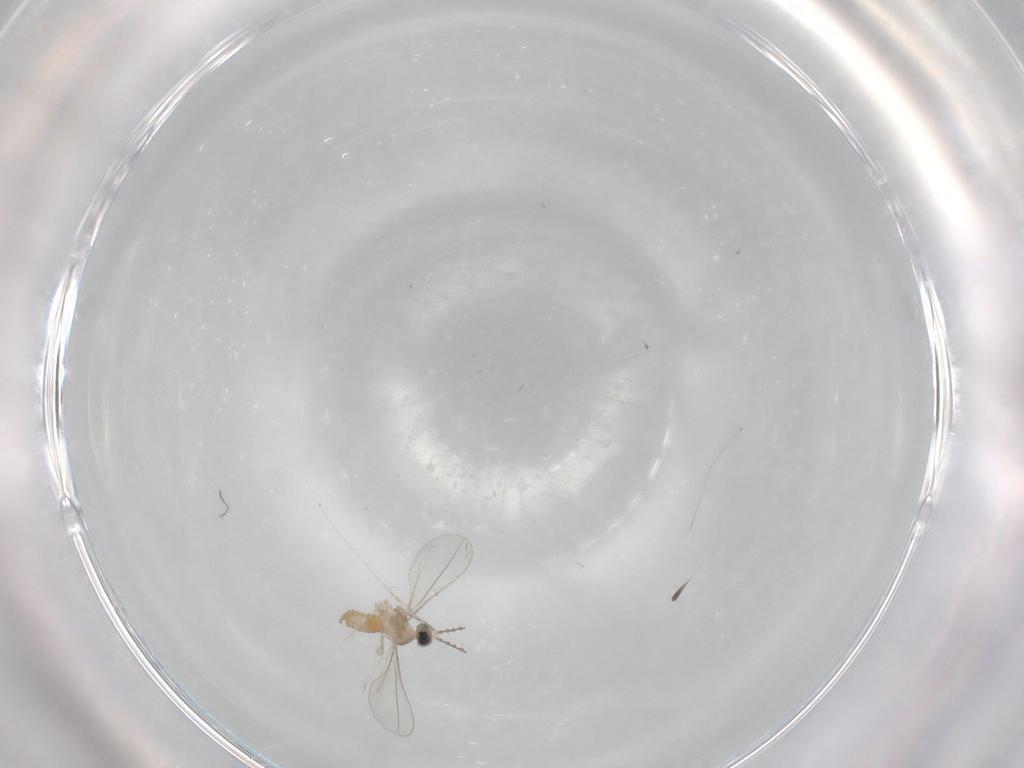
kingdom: Animalia
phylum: Arthropoda
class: Insecta
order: Diptera
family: Cecidomyiidae
